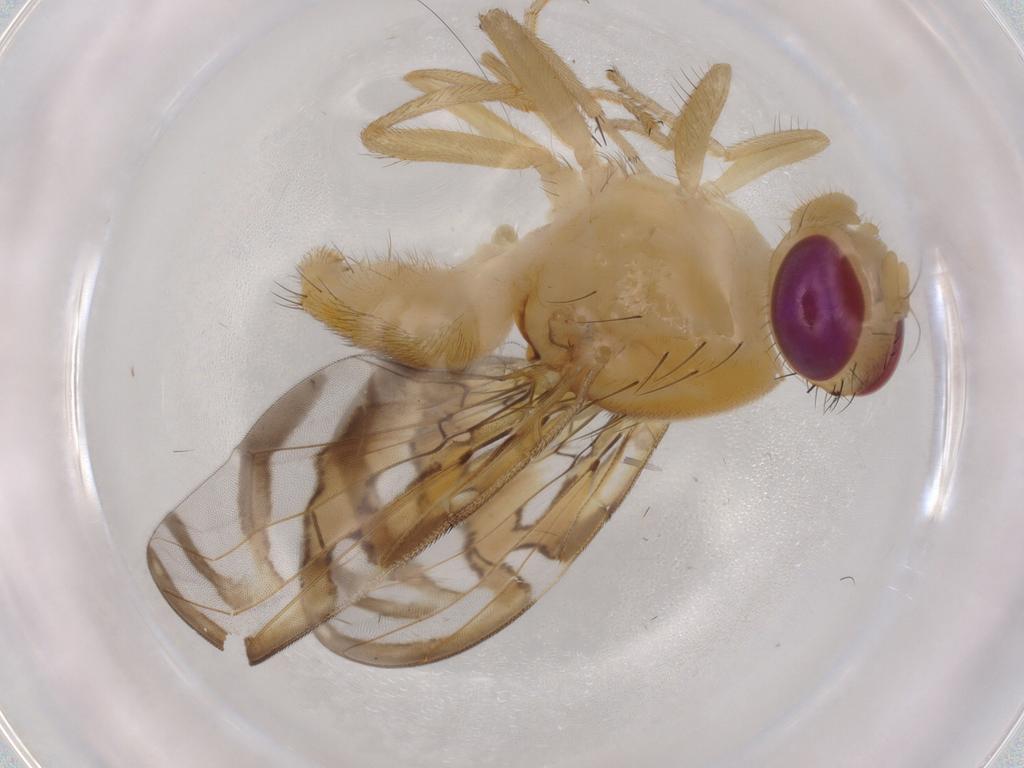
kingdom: Animalia
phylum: Arthropoda
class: Insecta
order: Diptera
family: Tephritidae
